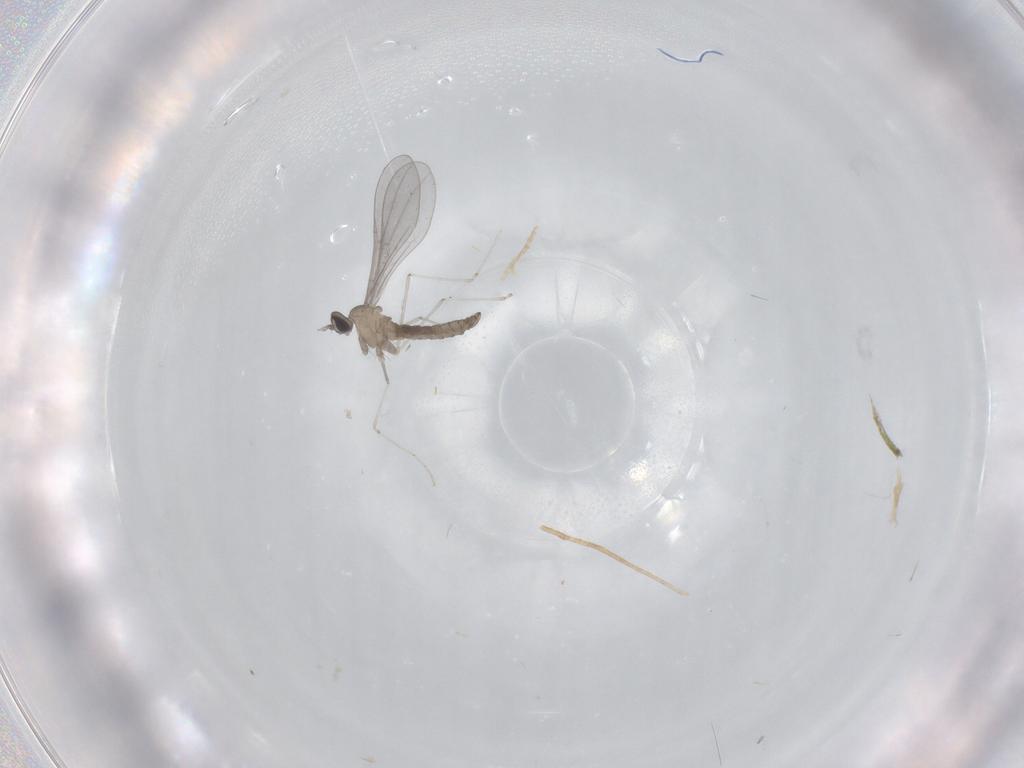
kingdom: Animalia
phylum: Arthropoda
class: Insecta
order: Diptera
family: Cecidomyiidae
